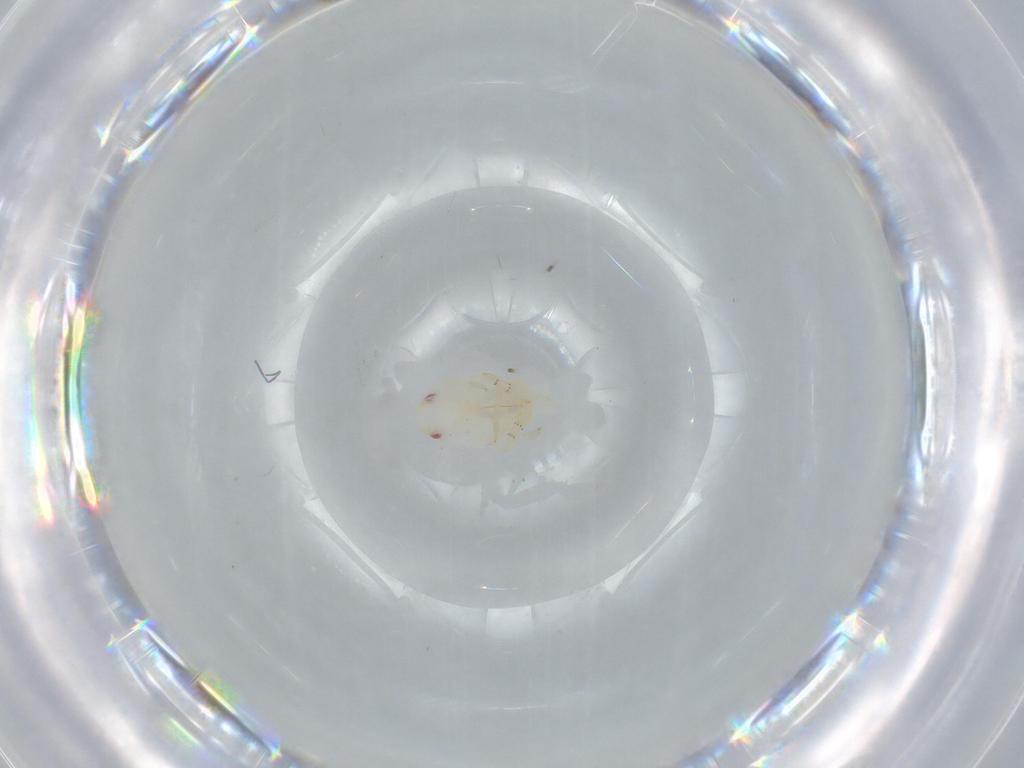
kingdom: Animalia
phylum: Arthropoda
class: Insecta
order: Hemiptera
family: Flatidae
